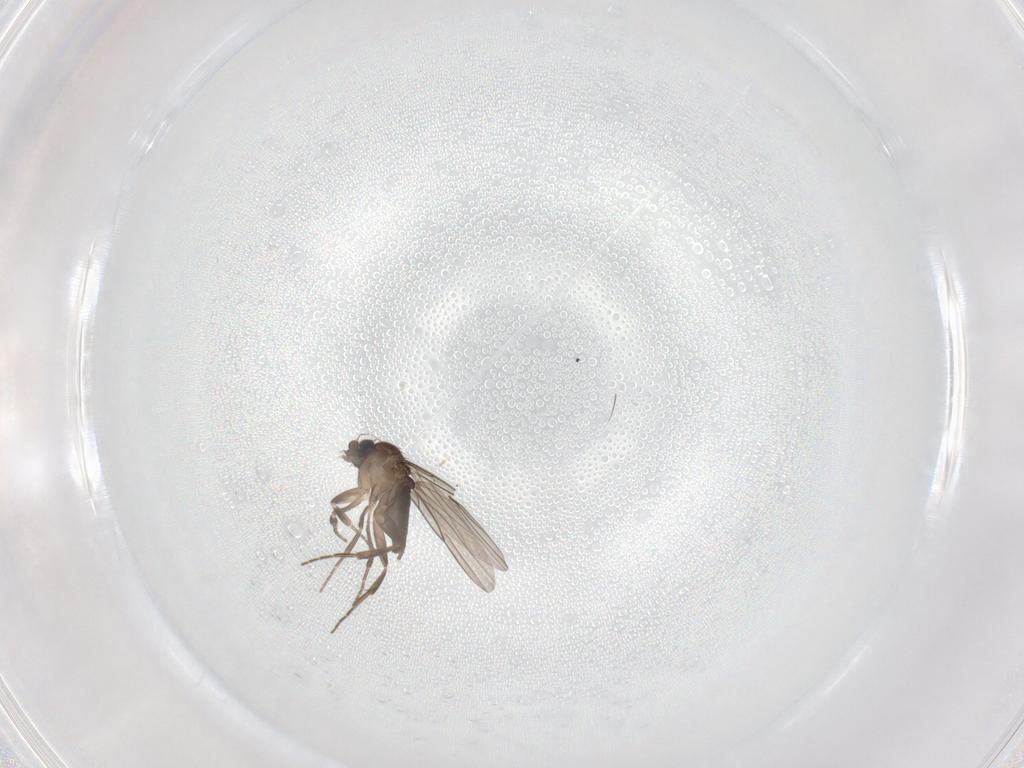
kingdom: Animalia
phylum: Arthropoda
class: Insecta
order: Diptera
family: Phoridae
